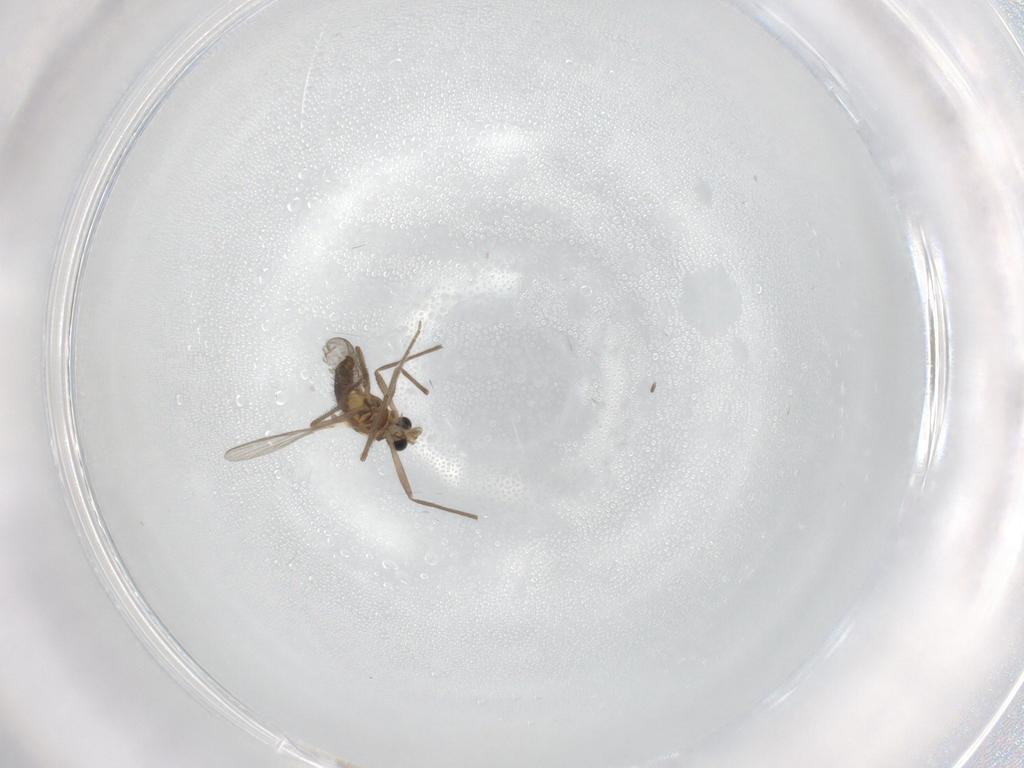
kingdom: Animalia
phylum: Arthropoda
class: Insecta
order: Diptera
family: Chironomidae
